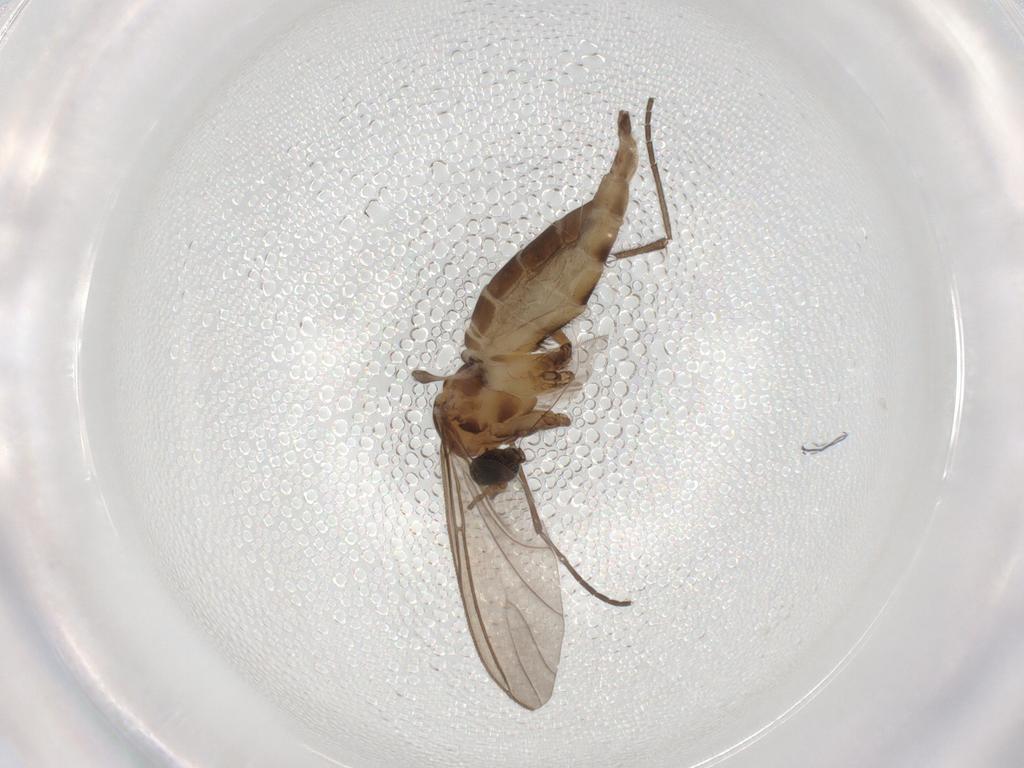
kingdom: Animalia
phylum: Arthropoda
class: Insecta
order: Diptera
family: Sciaridae
